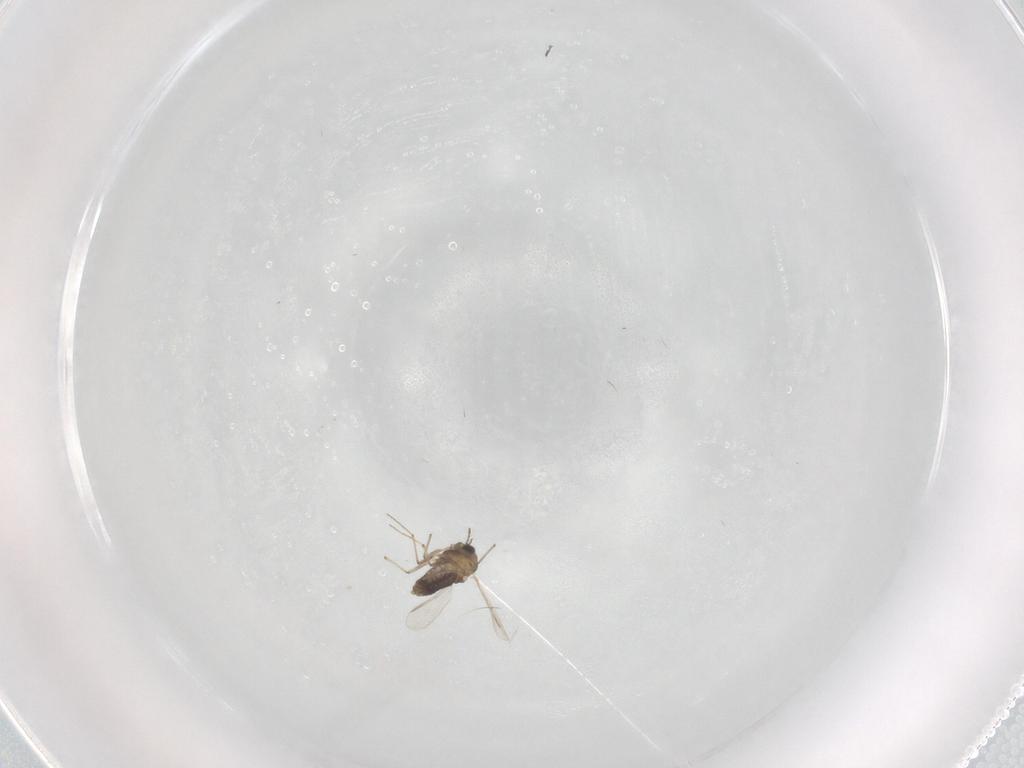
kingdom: Animalia
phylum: Arthropoda
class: Insecta
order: Diptera
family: Chironomidae
